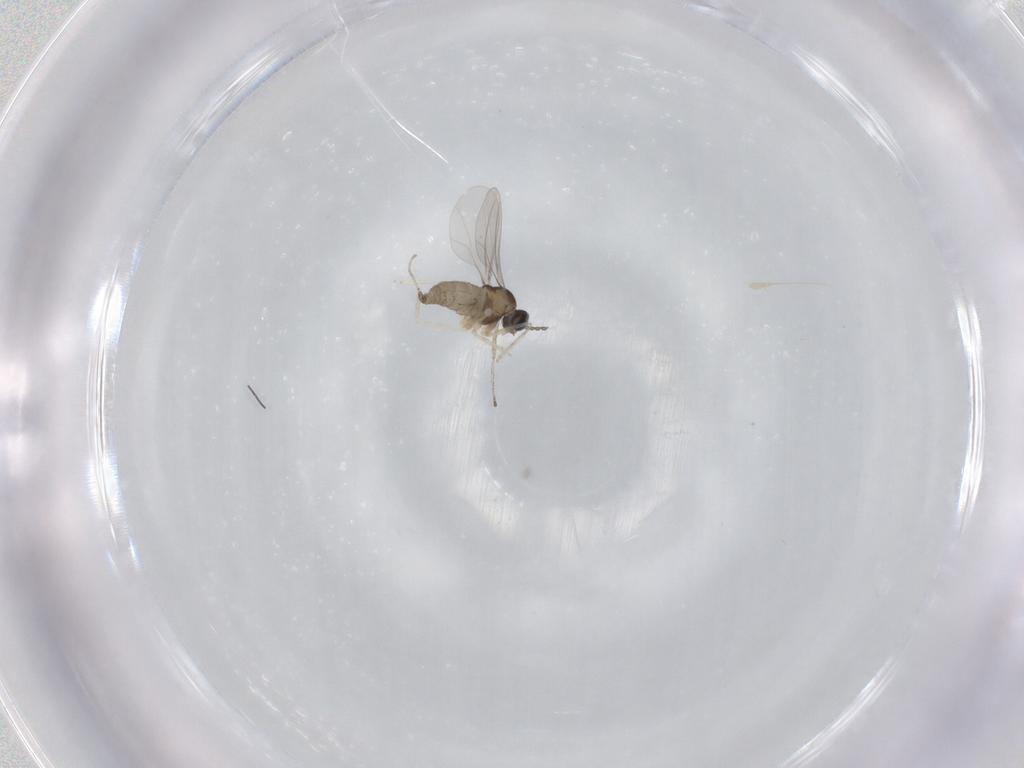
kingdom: Animalia
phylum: Arthropoda
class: Insecta
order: Diptera
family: Cecidomyiidae
